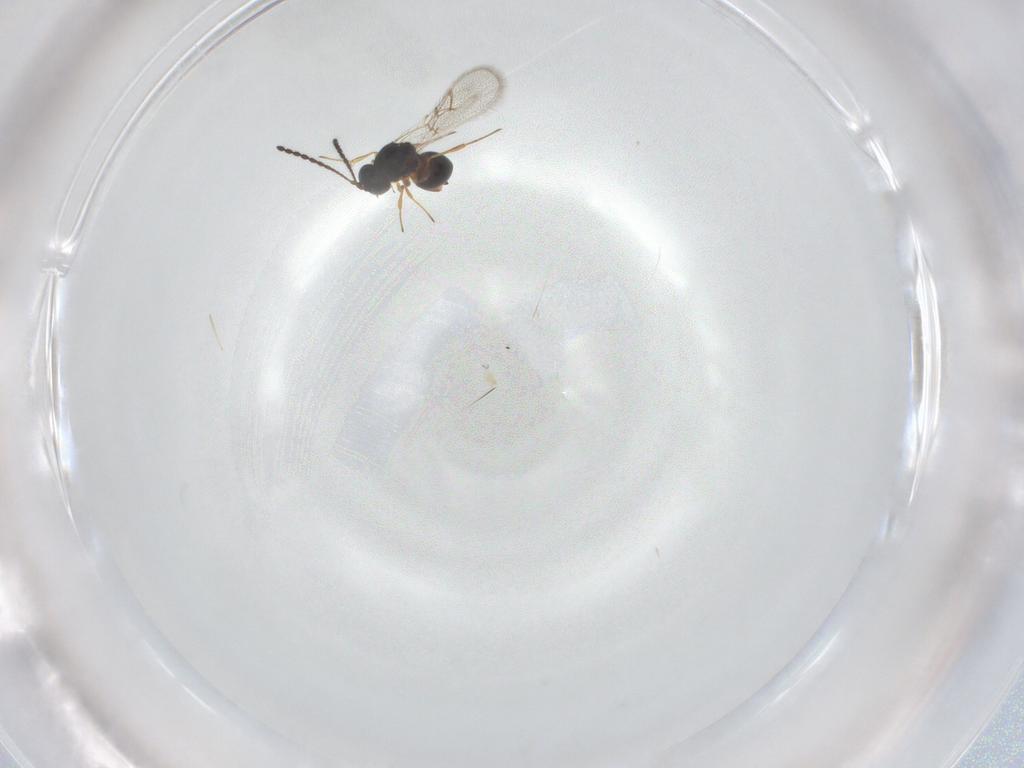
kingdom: Animalia
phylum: Arthropoda
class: Insecta
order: Hymenoptera
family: Figitidae
